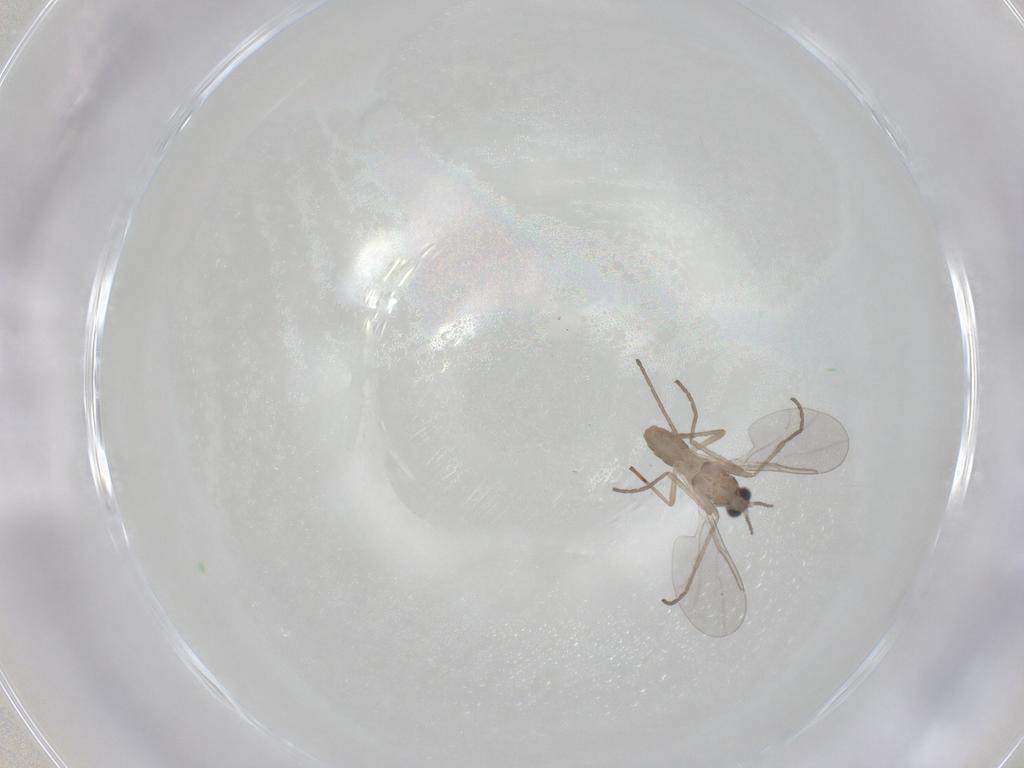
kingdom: Animalia
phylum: Arthropoda
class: Insecta
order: Diptera
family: Cecidomyiidae
